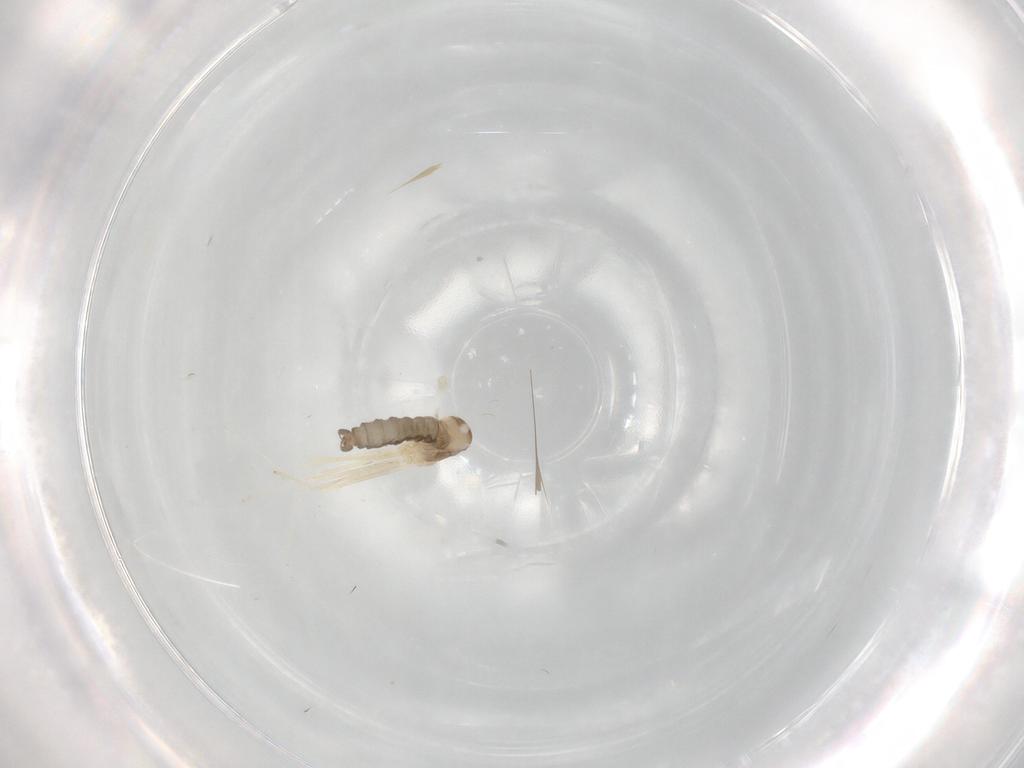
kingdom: Animalia
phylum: Arthropoda
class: Insecta
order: Diptera
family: Cecidomyiidae
